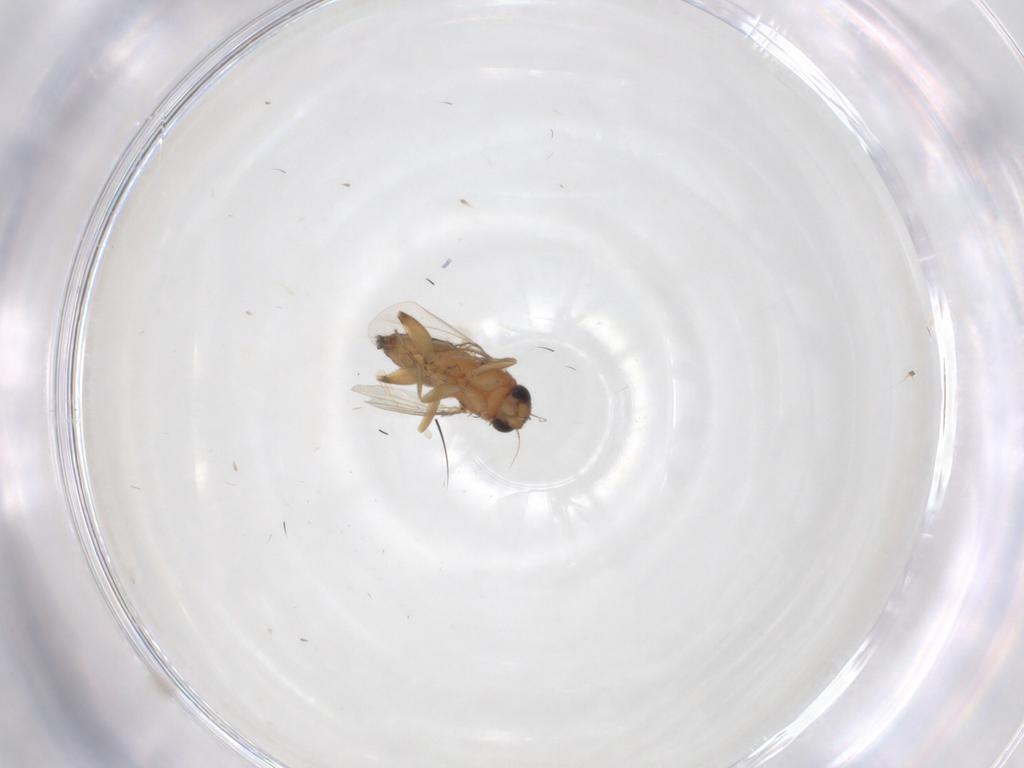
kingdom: Animalia
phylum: Arthropoda
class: Insecta
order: Diptera
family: Phoridae
